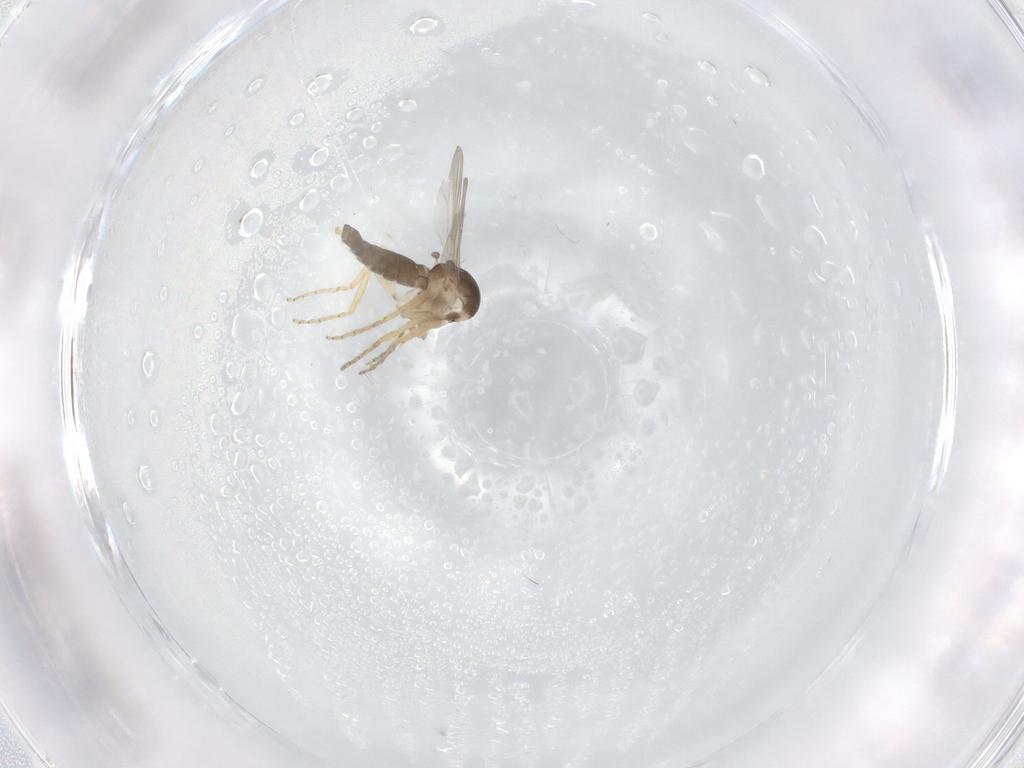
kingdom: Animalia
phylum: Arthropoda
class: Insecta
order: Diptera
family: Ceratopogonidae
